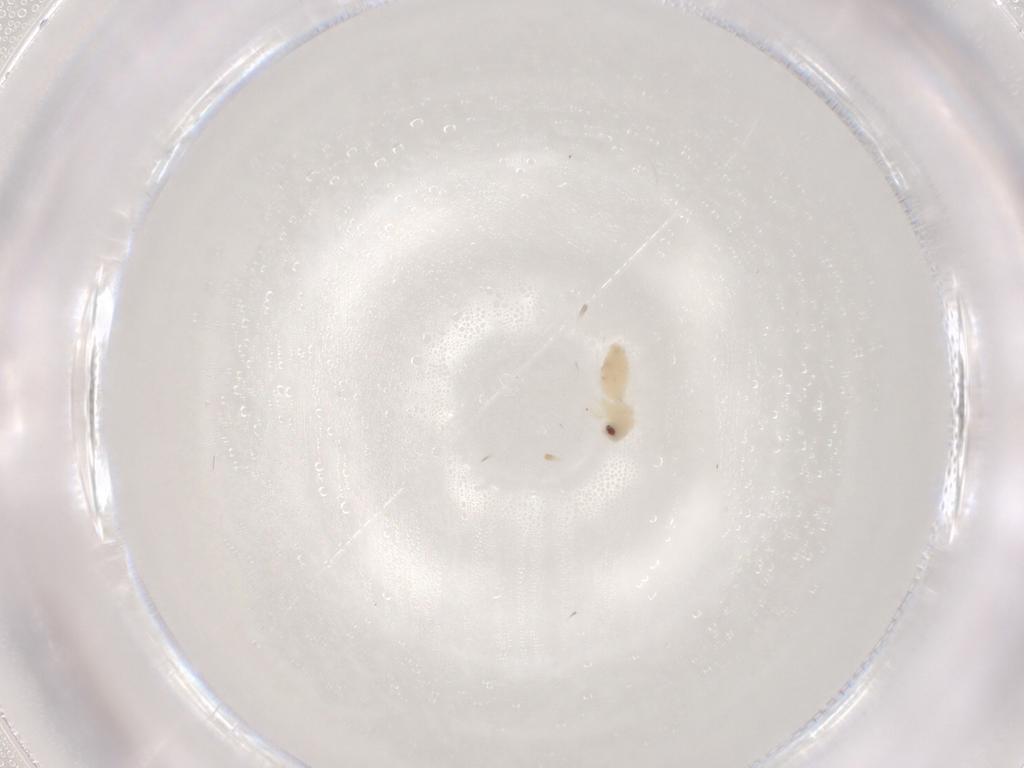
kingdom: Animalia
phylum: Arthropoda
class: Insecta
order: Hemiptera
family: Aleyrodidae
